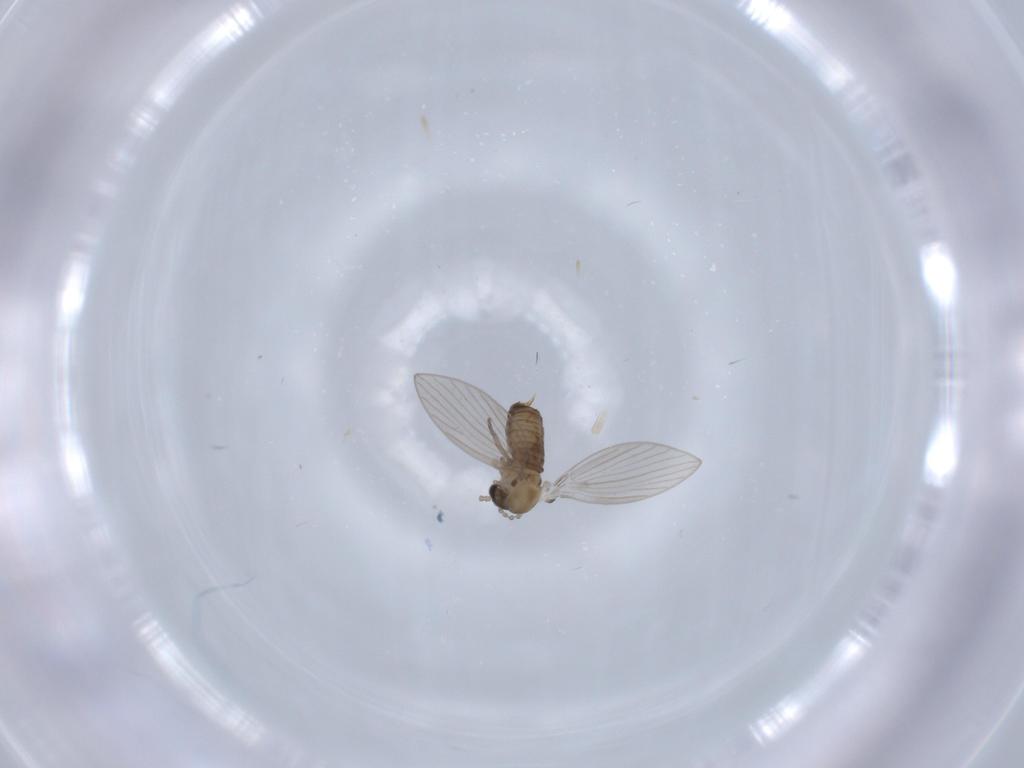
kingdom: Animalia
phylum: Arthropoda
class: Insecta
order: Diptera
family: Psychodidae
